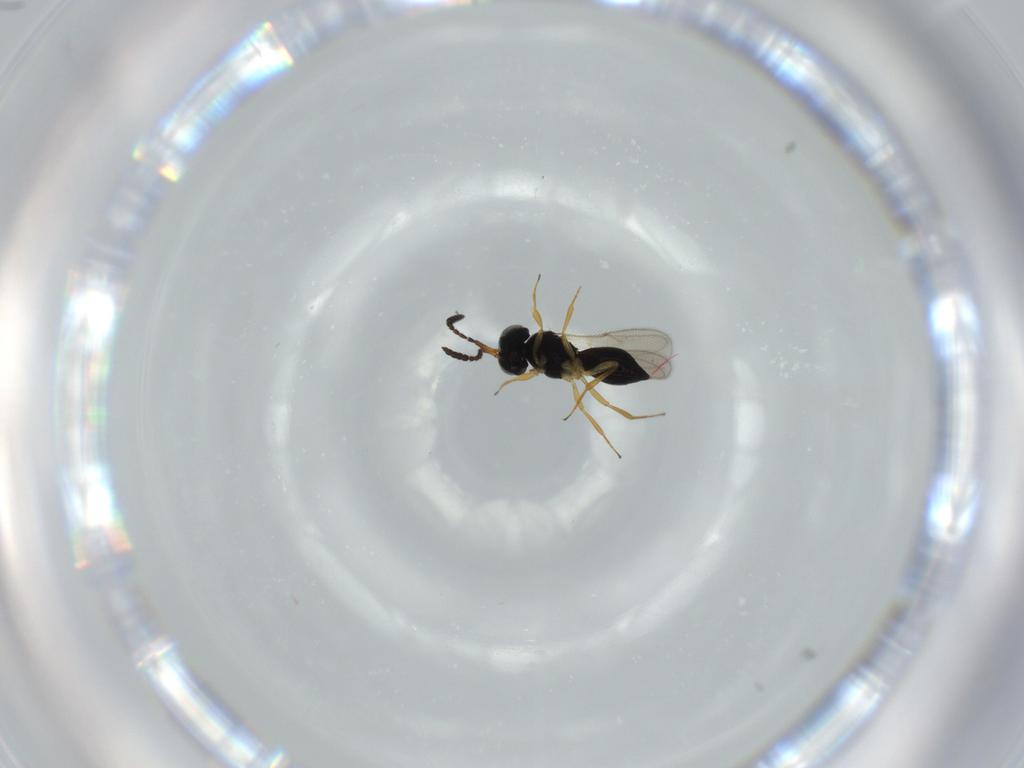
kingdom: Animalia
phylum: Arthropoda
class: Insecta
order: Hymenoptera
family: Scelionidae
